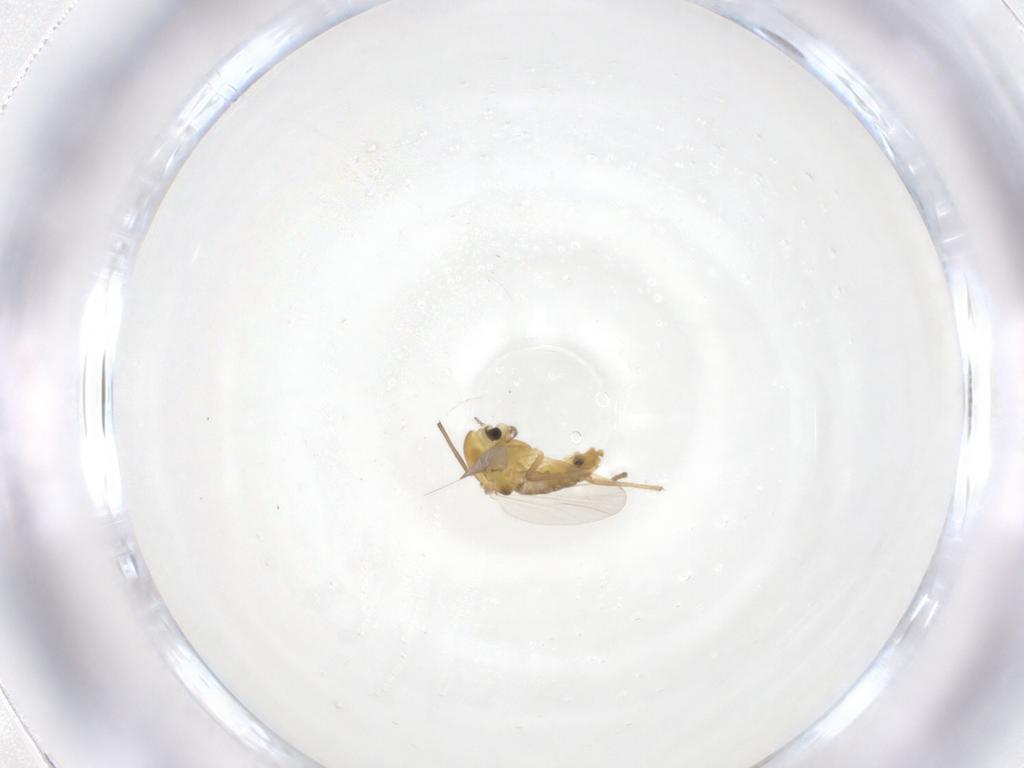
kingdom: Animalia
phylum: Arthropoda
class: Insecta
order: Diptera
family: Chironomidae
